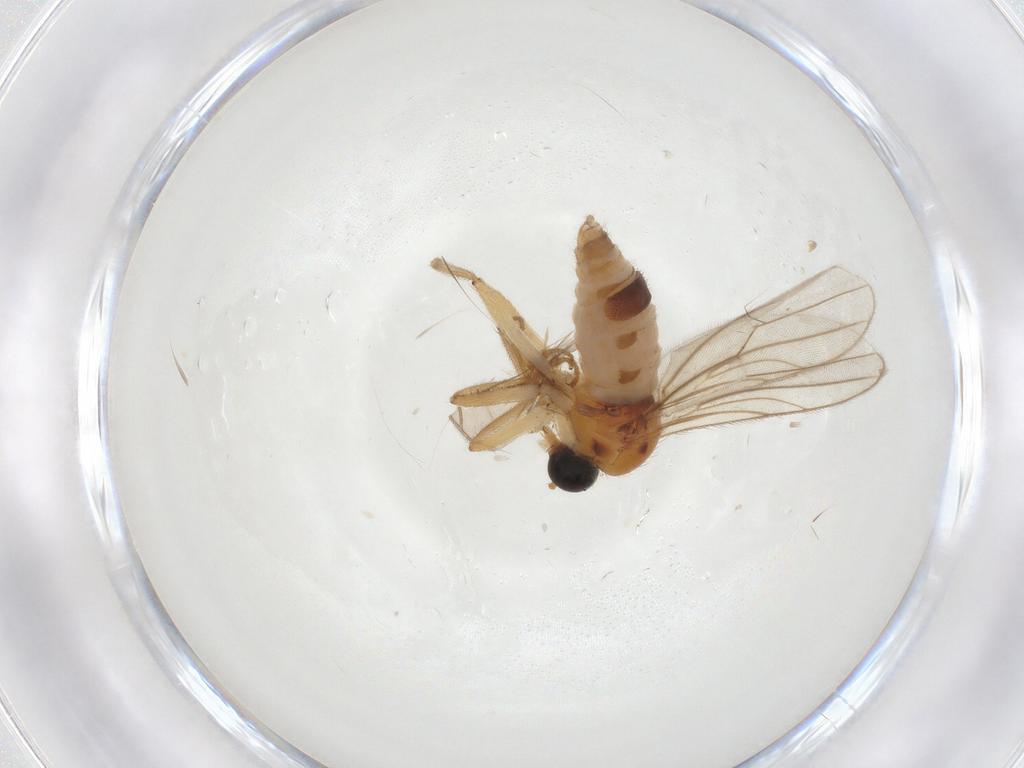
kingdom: Animalia
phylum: Arthropoda
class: Insecta
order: Diptera
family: Hybotidae
